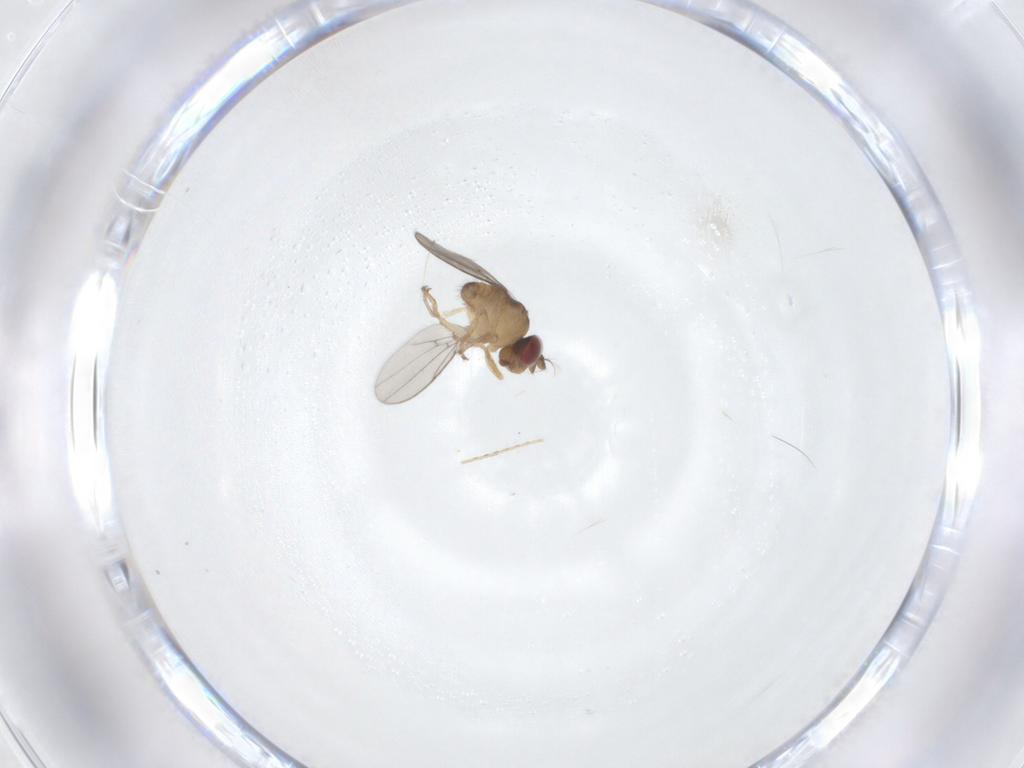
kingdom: Animalia
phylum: Arthropoda
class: Insecta
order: Diptera
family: Ephydridae
